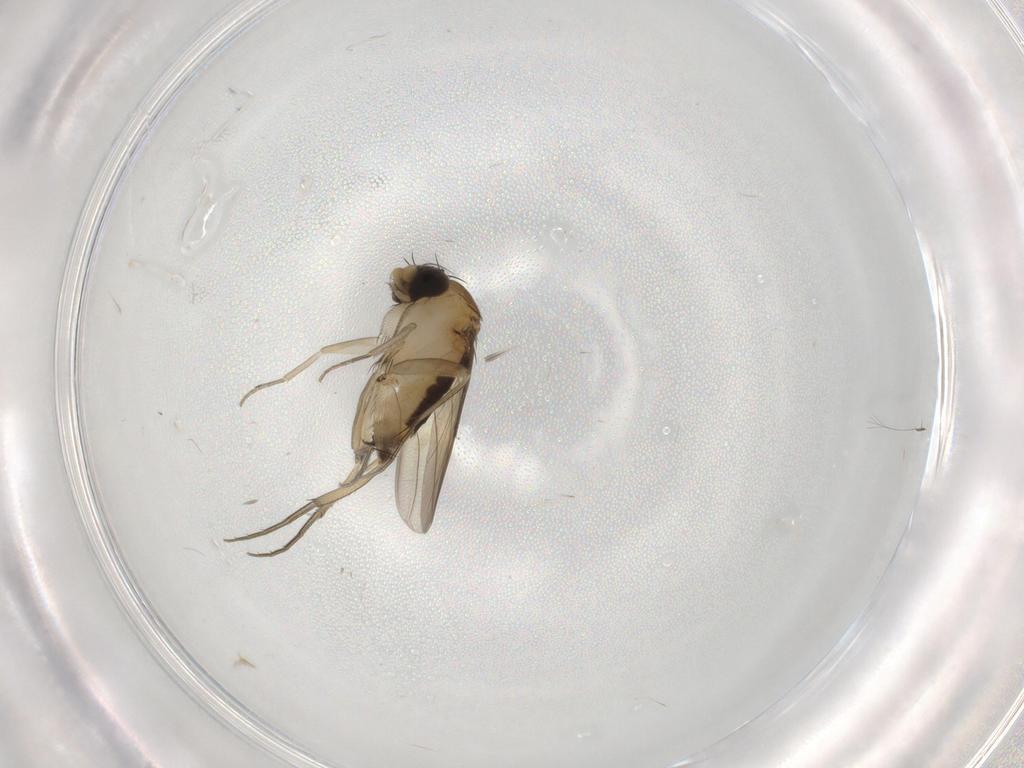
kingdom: Animalia
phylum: Arthropoda
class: Insecta
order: Diptera
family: Phoridae
